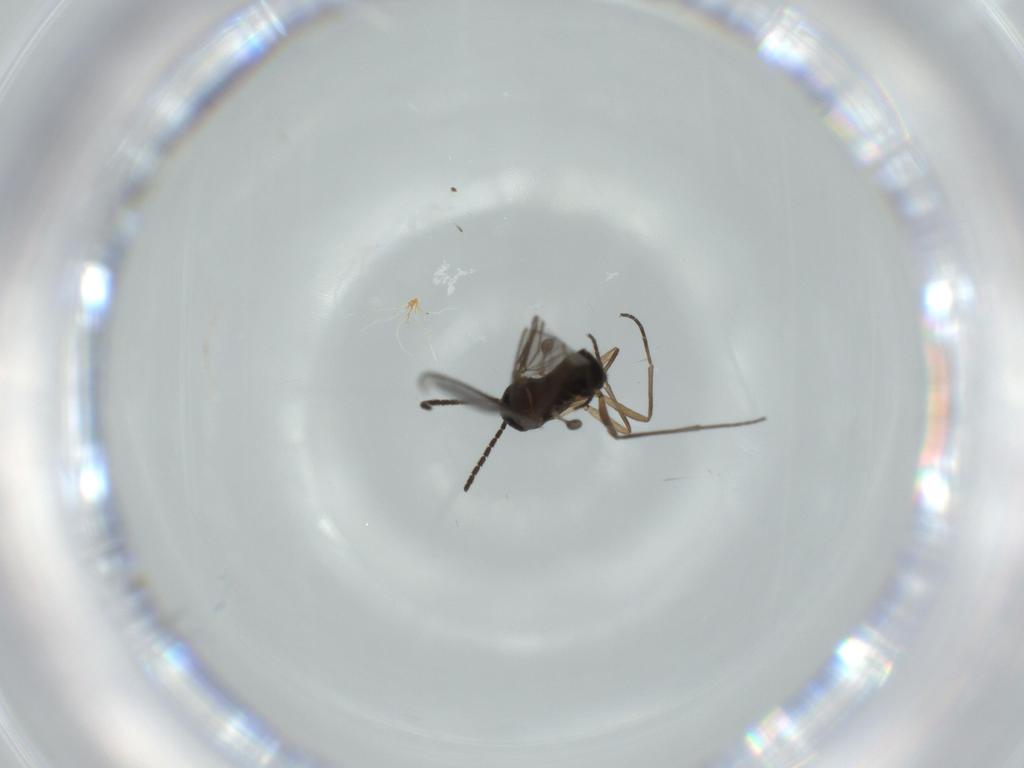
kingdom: Animalia
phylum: Arthropoda
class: Insecta
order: Diptera
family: Sciaridae
